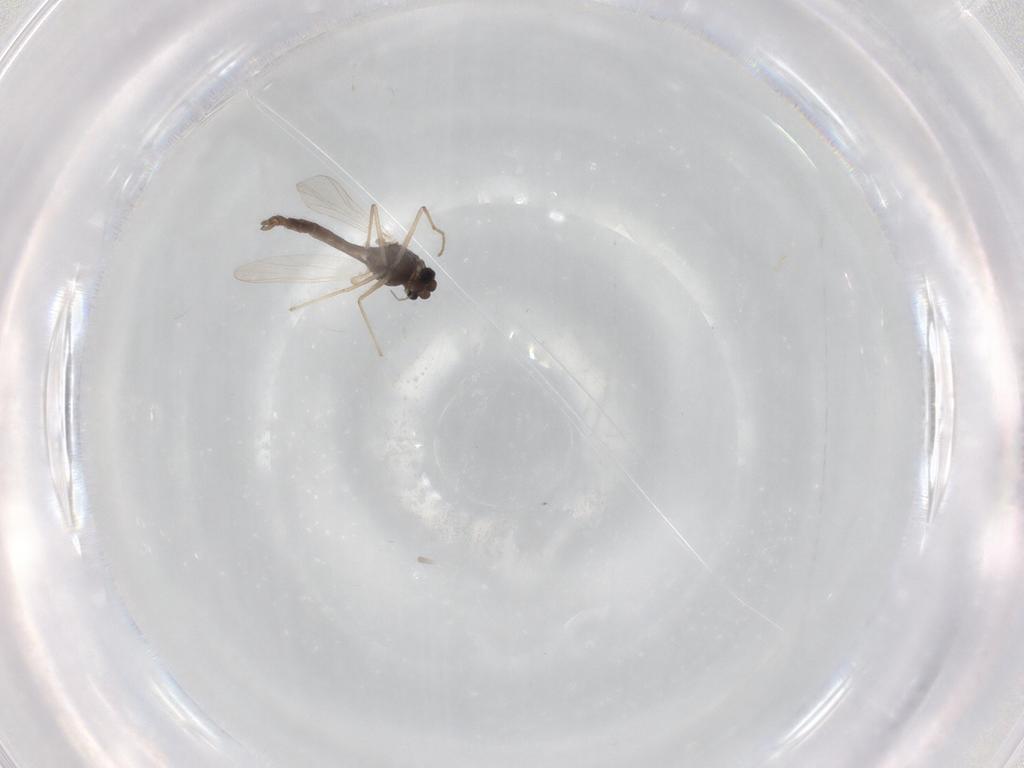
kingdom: Animalia
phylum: Arthropoda
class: Insecta
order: Diptera
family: Chironomidae
